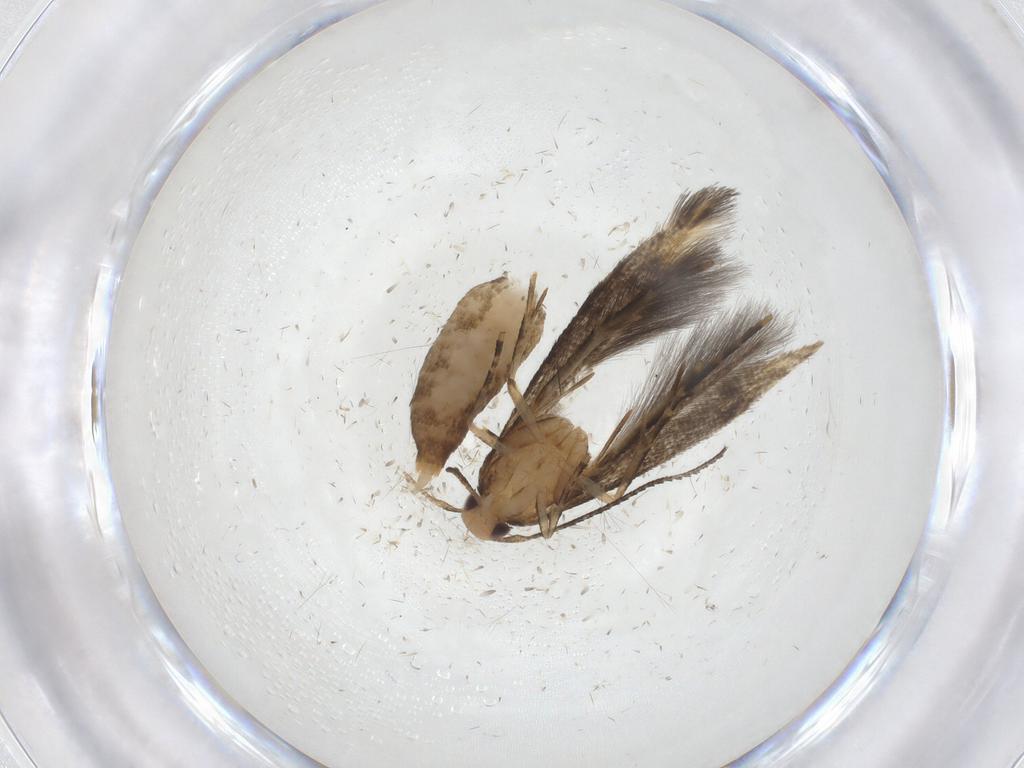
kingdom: Animalia
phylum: Arthropoda
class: Insecta
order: Lepidoptera
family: Cosmopterigidae
